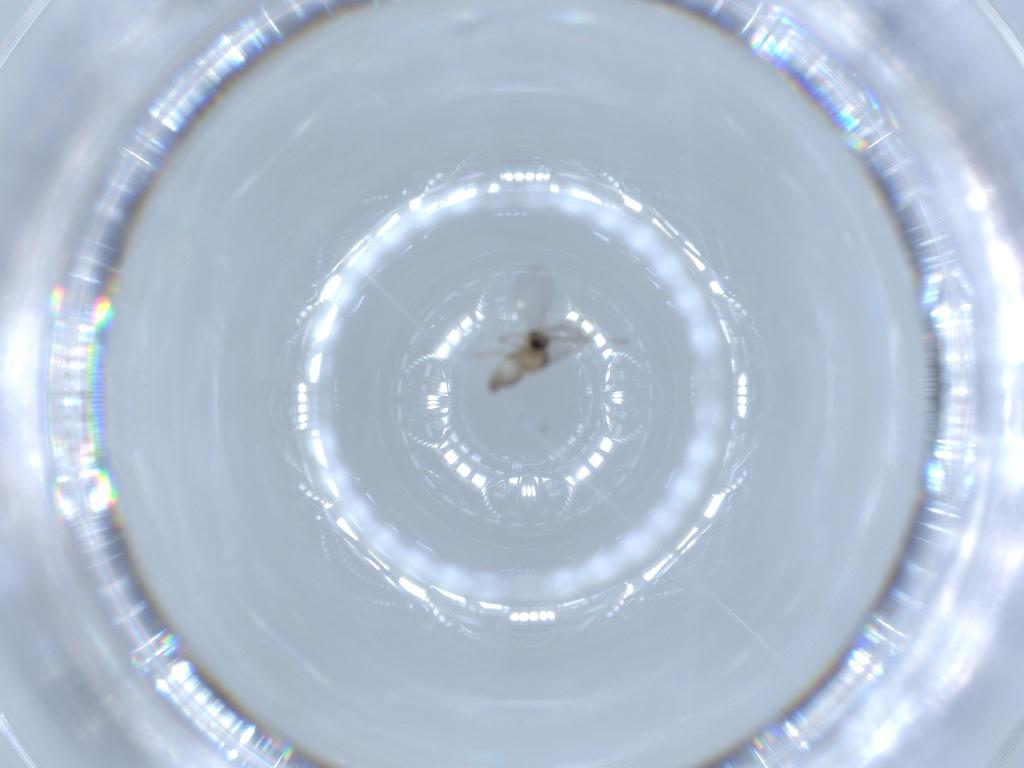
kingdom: Animalia
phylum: Arthropoda
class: Insecta
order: Diptera
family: Cecidomyiidae
